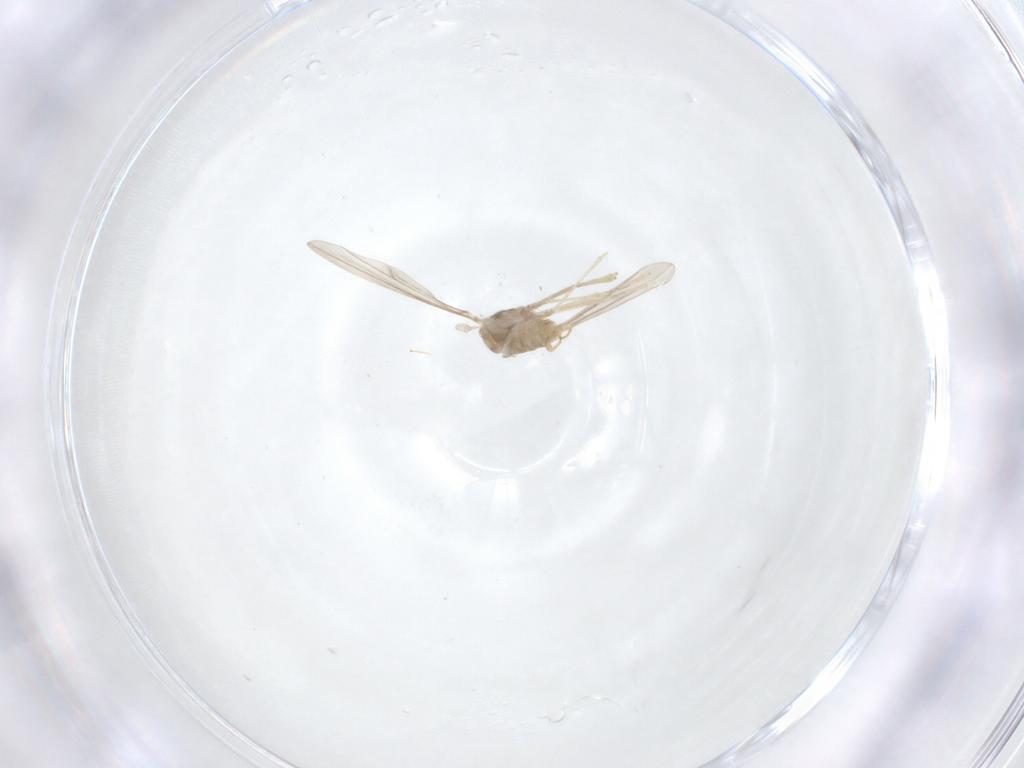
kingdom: Animalia
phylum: Arthropoda
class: Insecta
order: Diptera
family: Cecidomyiidae
